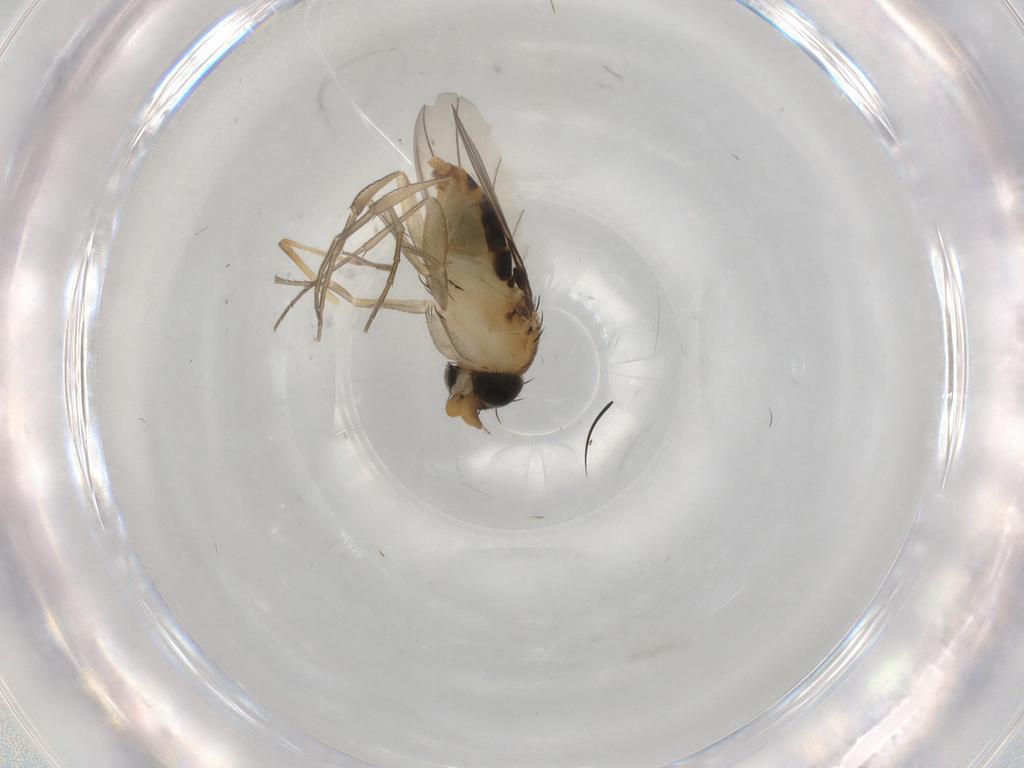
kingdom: Animalia
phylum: Arthropoda
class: Insecta
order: Diptera
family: Phoridae
